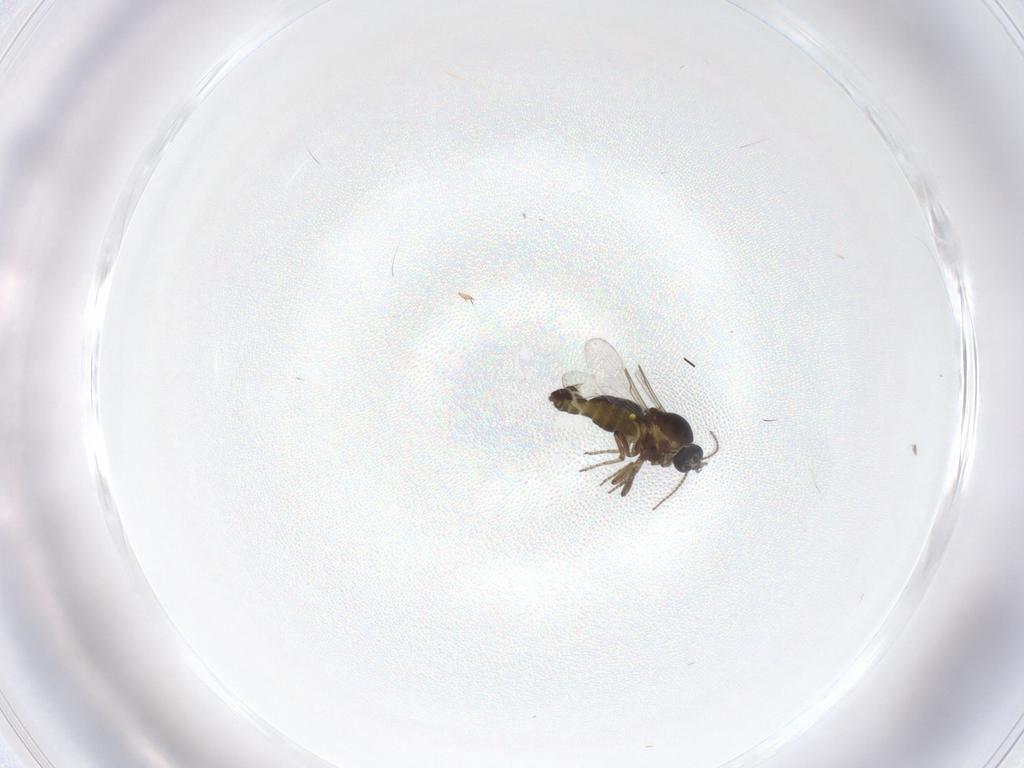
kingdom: Animalia
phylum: Arthropoda
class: Insecta
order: Diptera
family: Ceratopogonidae
